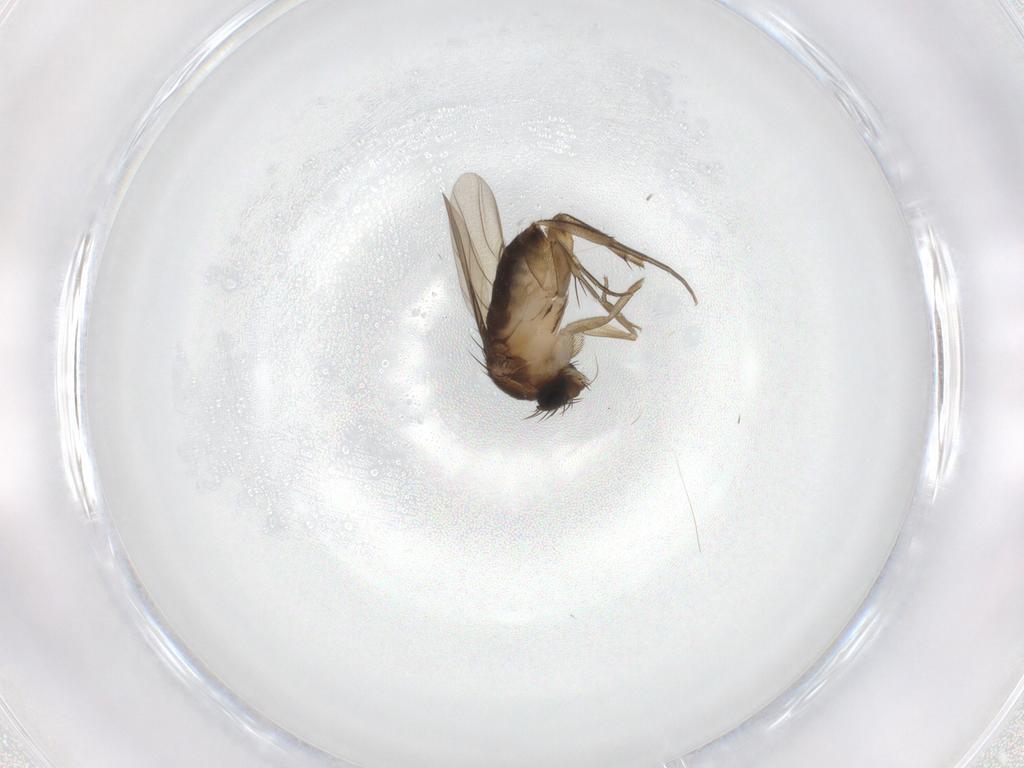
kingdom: Animalia
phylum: Arthropoda
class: Insecta
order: Diptera
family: Phoridae
